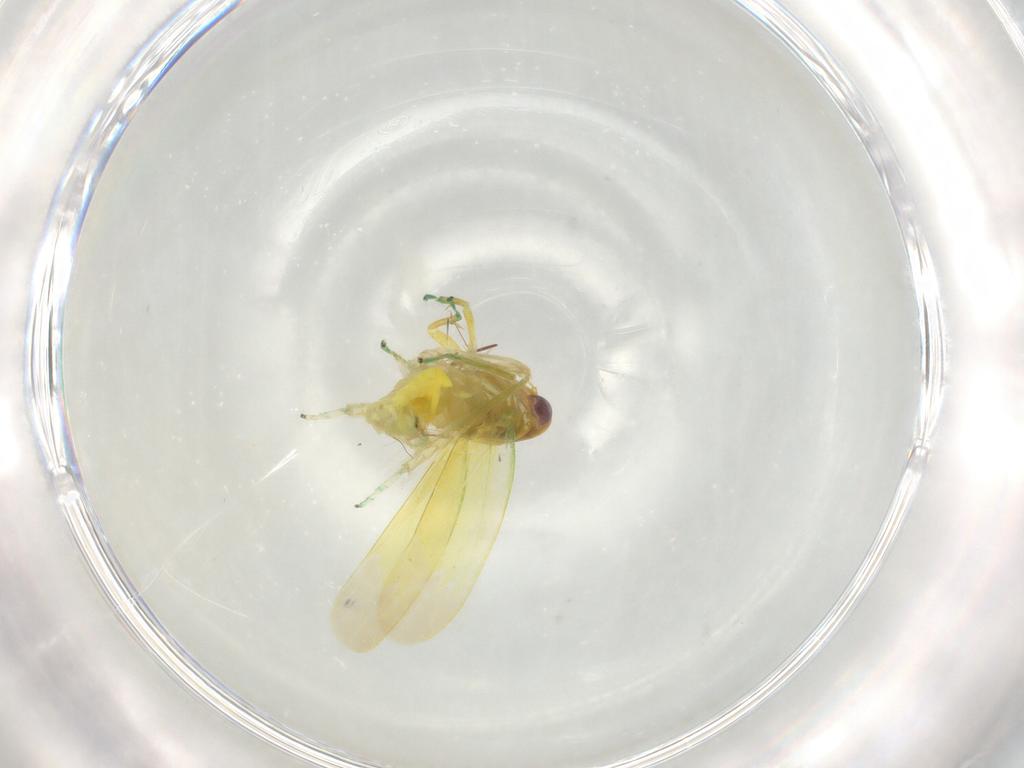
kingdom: Animalia
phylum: Arthropoda
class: Insecta
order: Hemiptera
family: Cicadellidae
